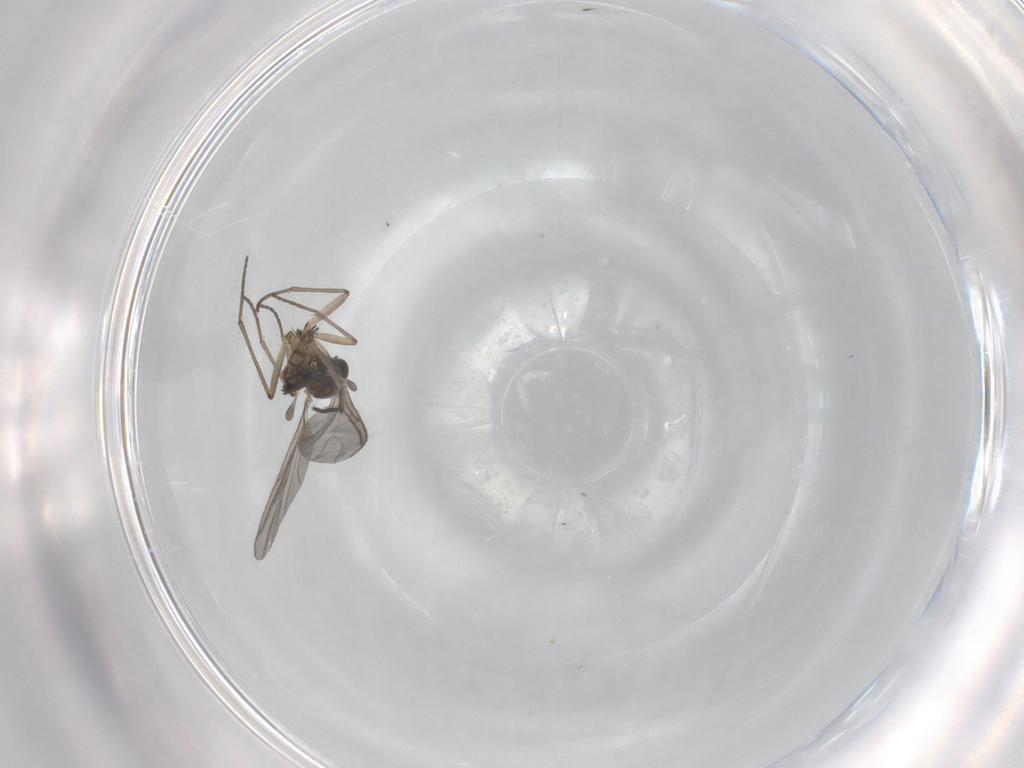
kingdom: Animalia
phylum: Arthropoda
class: Insecta
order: Diptera
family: Sciaridae
